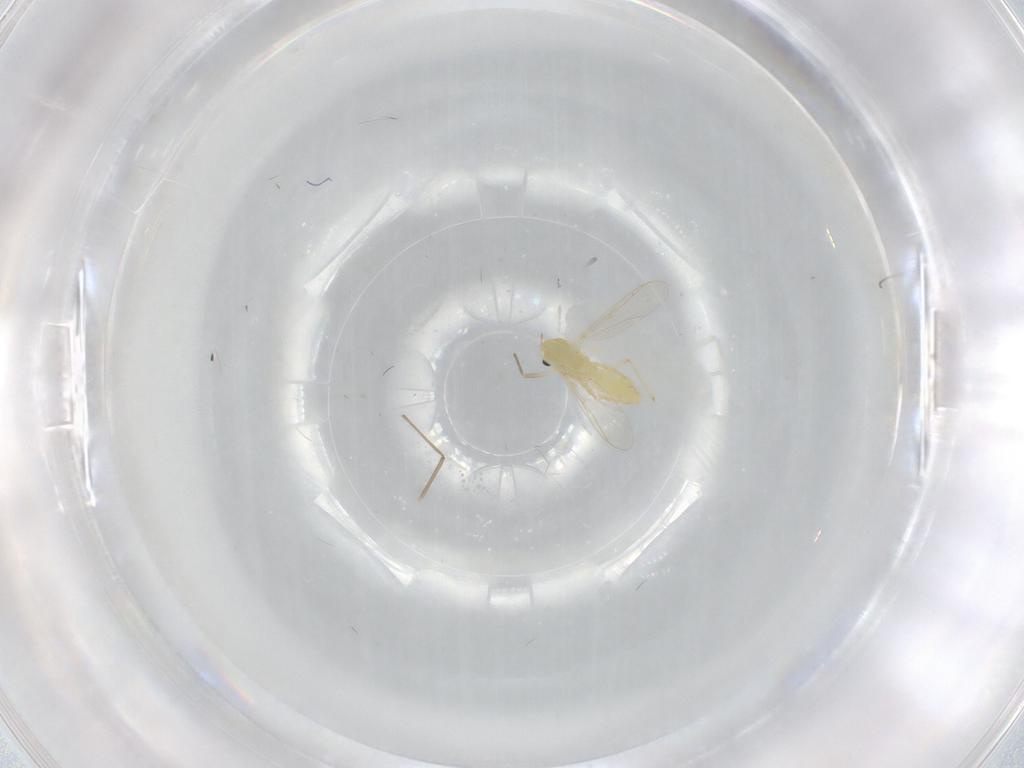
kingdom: Animalia
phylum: Arthropoda
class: Insecta
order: Diptera
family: Chironomidae
